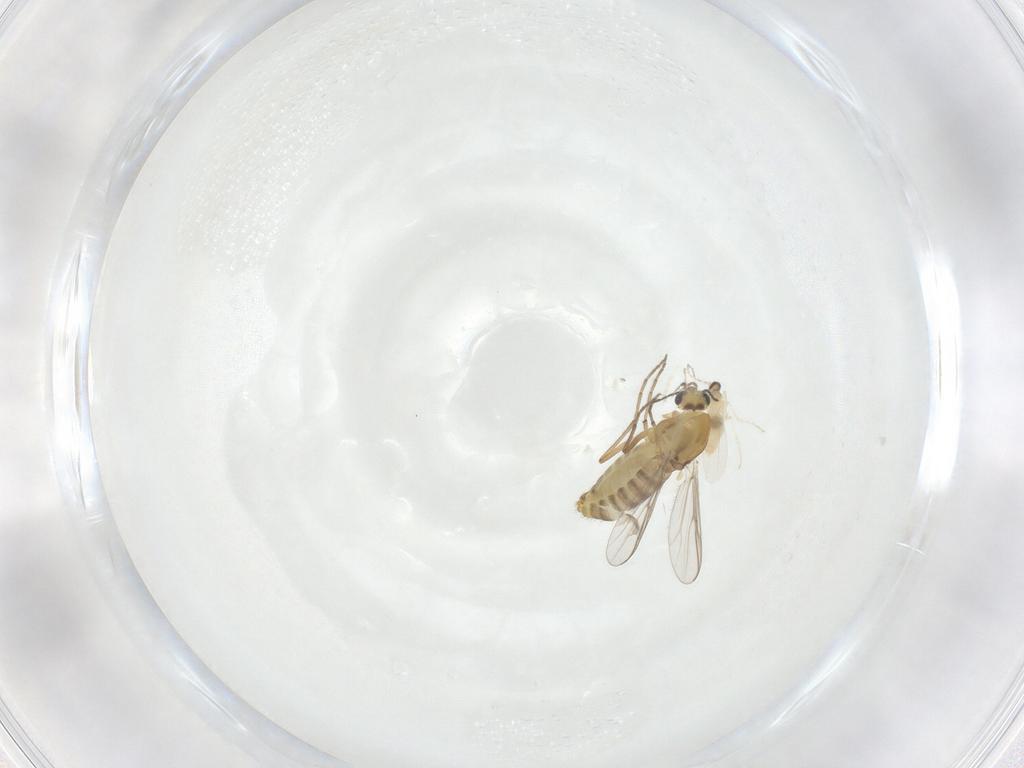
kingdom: Animalia
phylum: Arthropoda
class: Insecta
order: Diptera
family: Chironomidae
